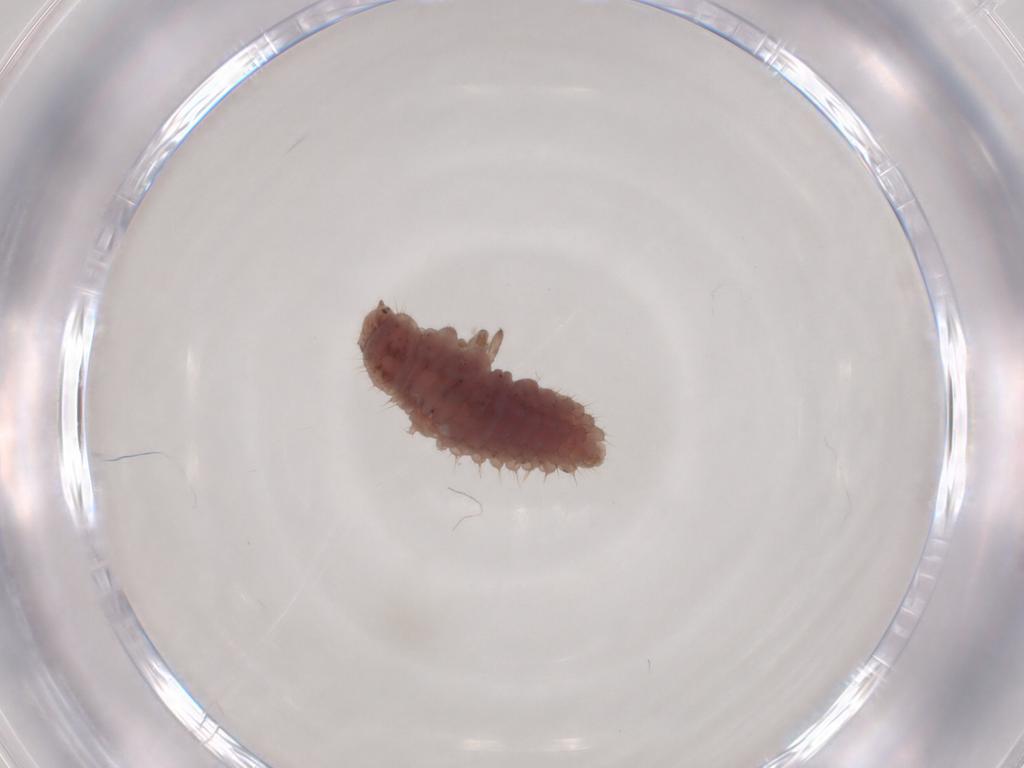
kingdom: Animalia
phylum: Arthropoda
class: Insecta
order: Coleoptera
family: Coccinellidae
